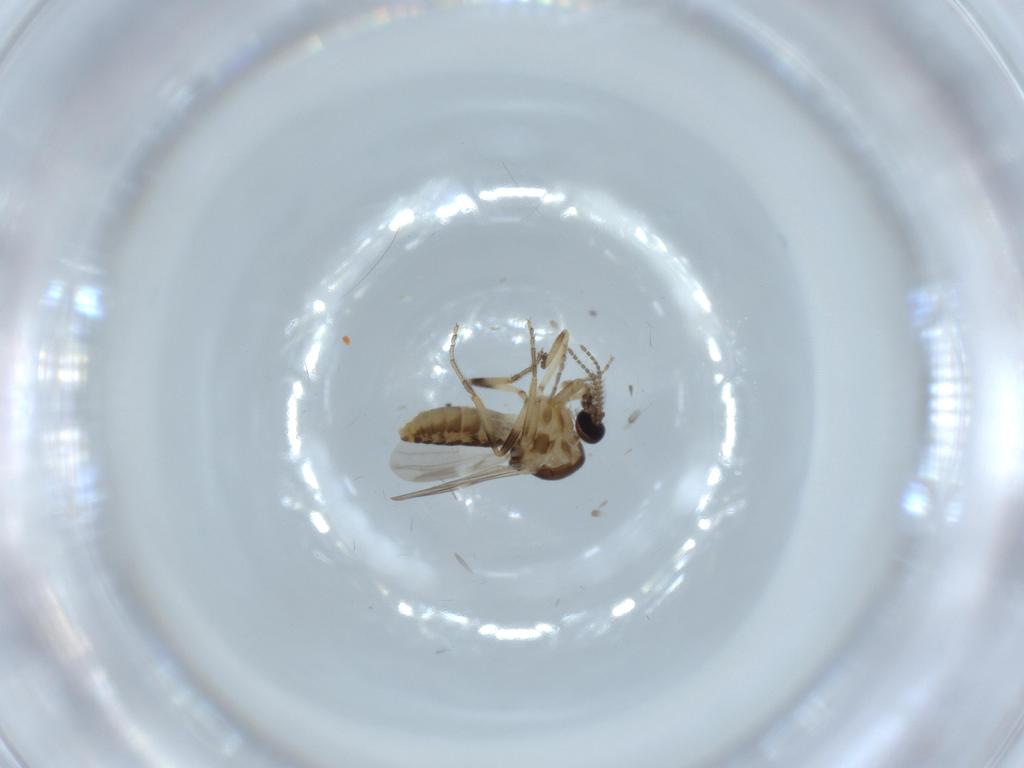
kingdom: Animalia
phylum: Arthropoda
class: Insecta
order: Diptera
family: Ceratopogonidae
